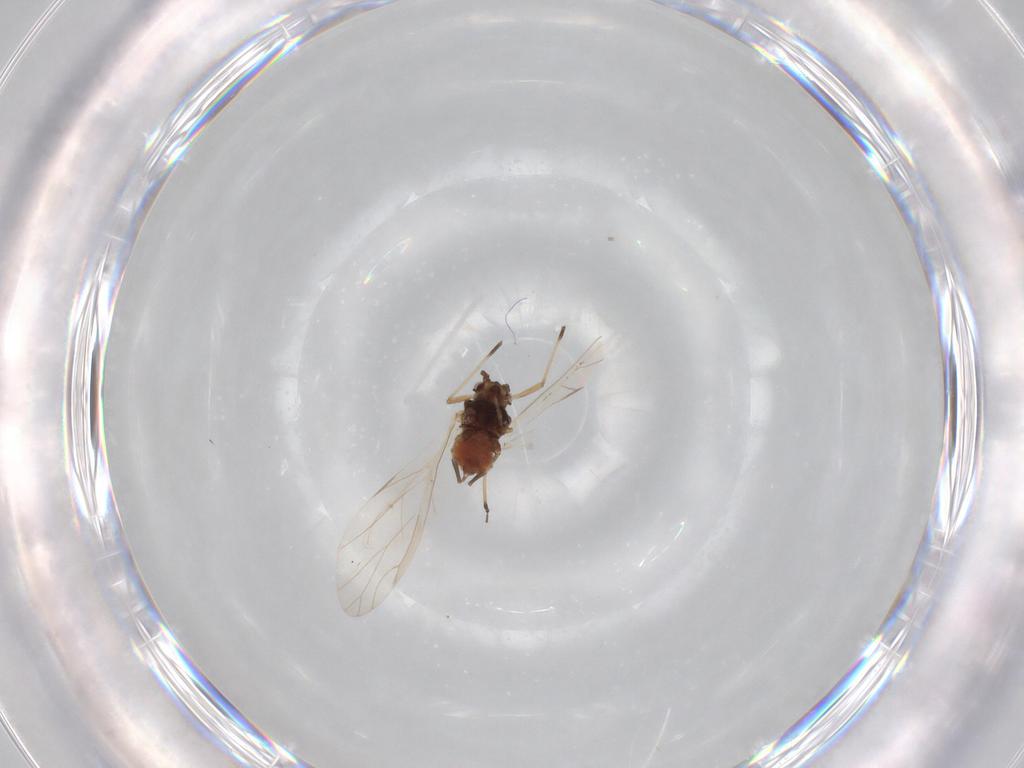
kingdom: Animalia
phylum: Arthropoda
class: Insecta
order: Hemiptera
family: Aphididae
